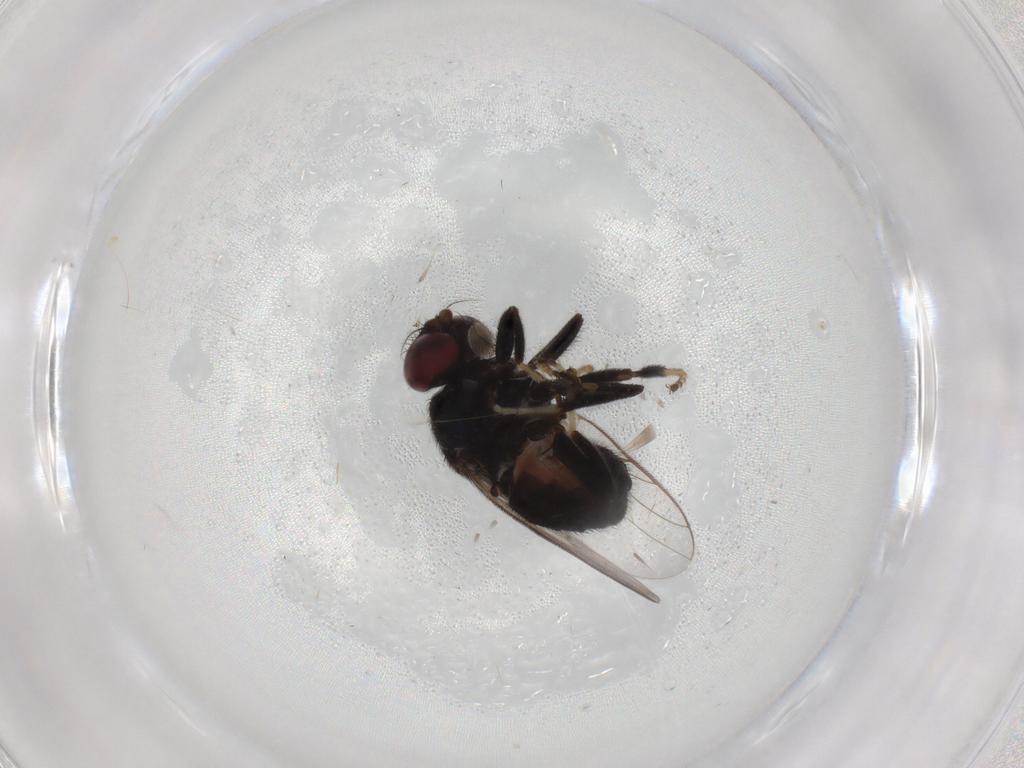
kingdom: Animalia
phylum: Arthropoda
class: Insecta
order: Diptera
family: Chloropidae
